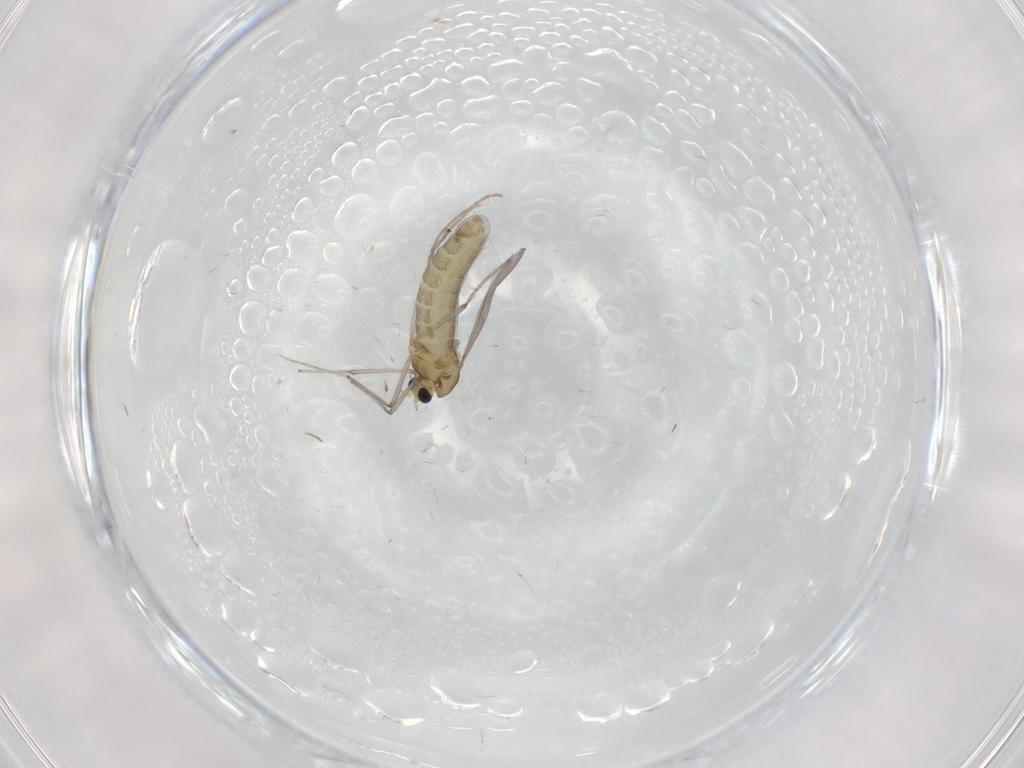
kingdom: Animalia
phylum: Arthropoda
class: Insecta
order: Diptera
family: Chironomidae
